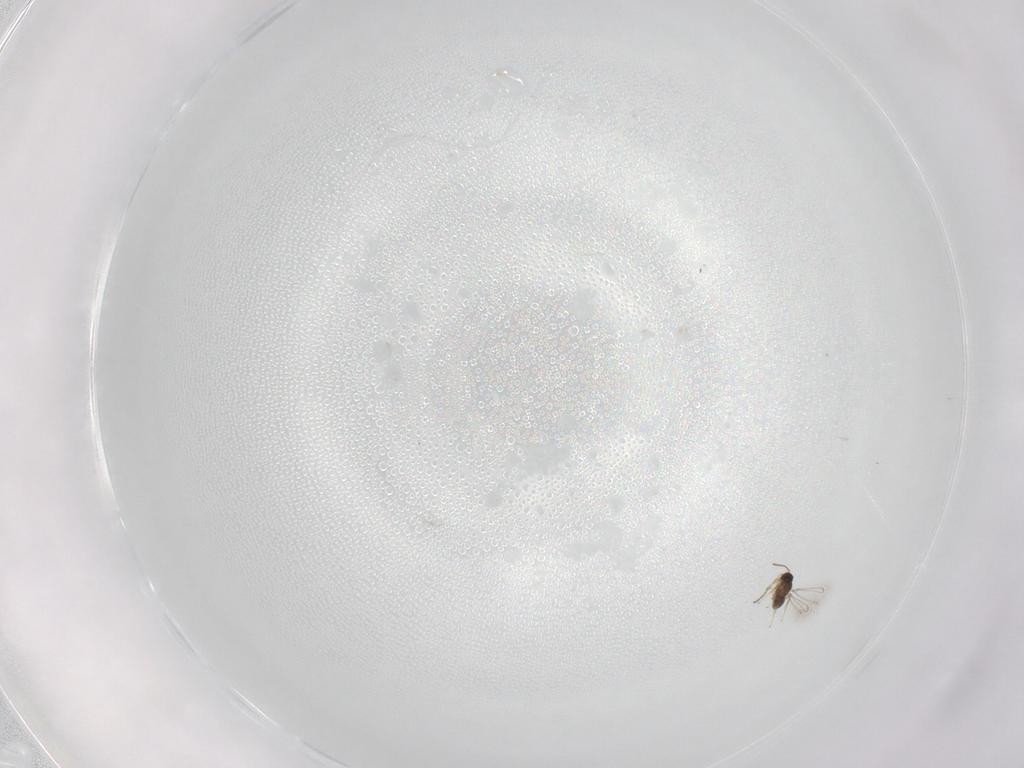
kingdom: Animalia
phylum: Arthropoda
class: Insecta
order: Hymenoptera
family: Mymaridae
